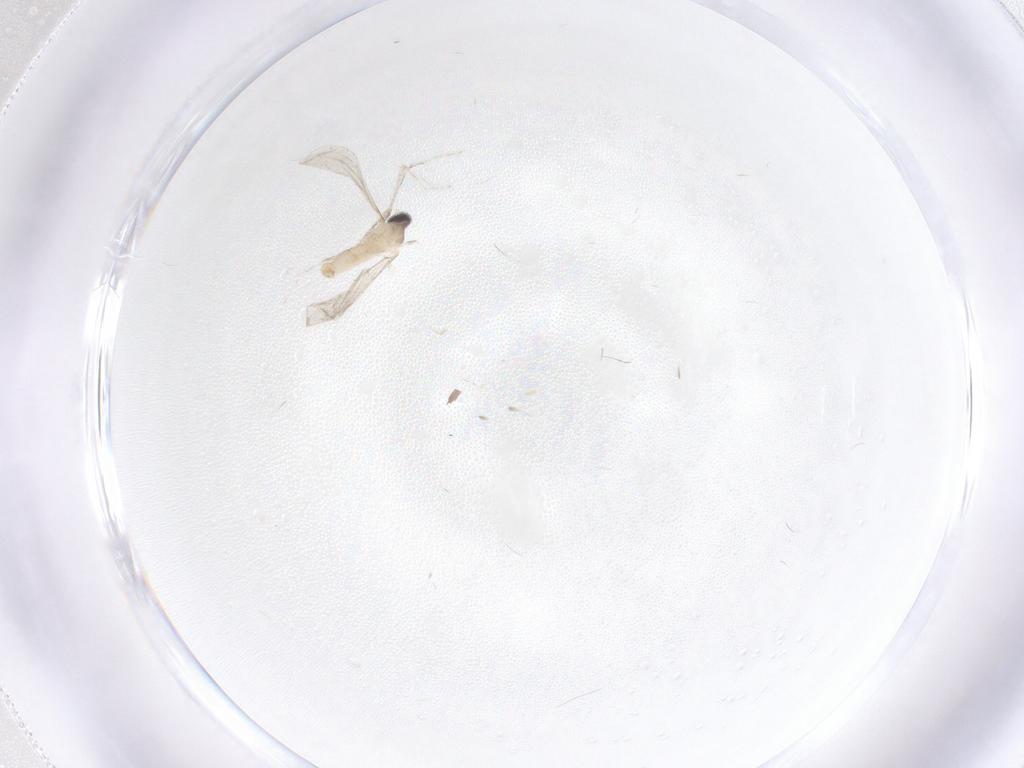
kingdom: Animalia
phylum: Arthropoda
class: Insecta
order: Diptera
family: Cecidomyiidae
